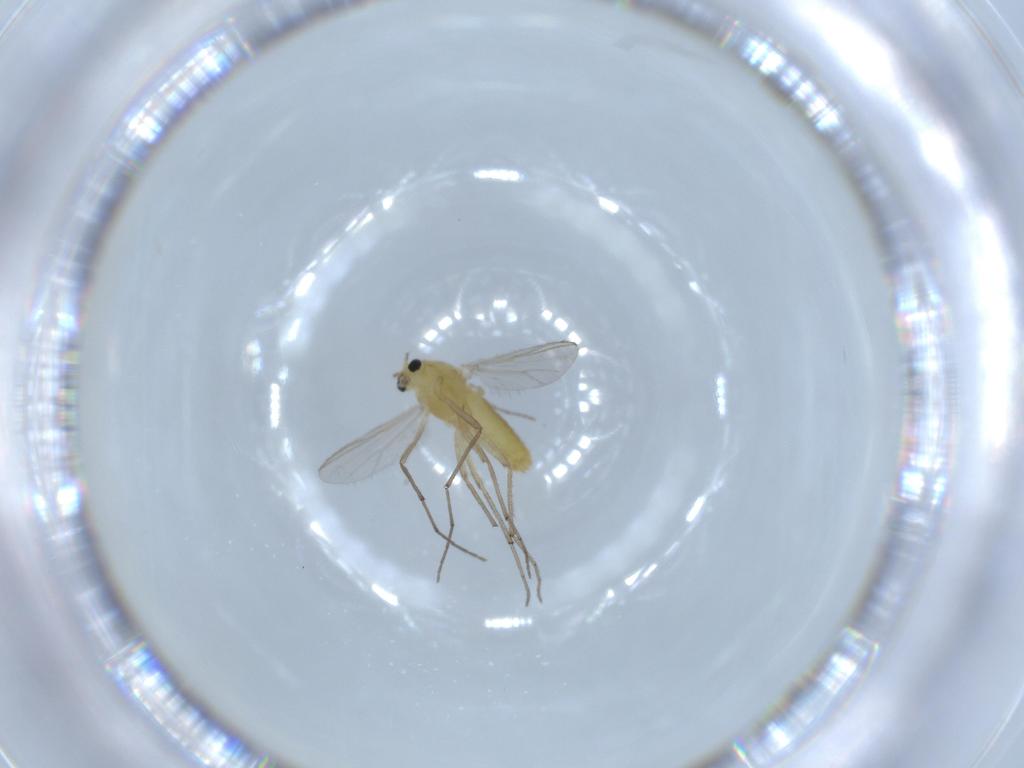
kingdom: Animalia
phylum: Arthropoda
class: Insecta
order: Diptera
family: Chironomidae
